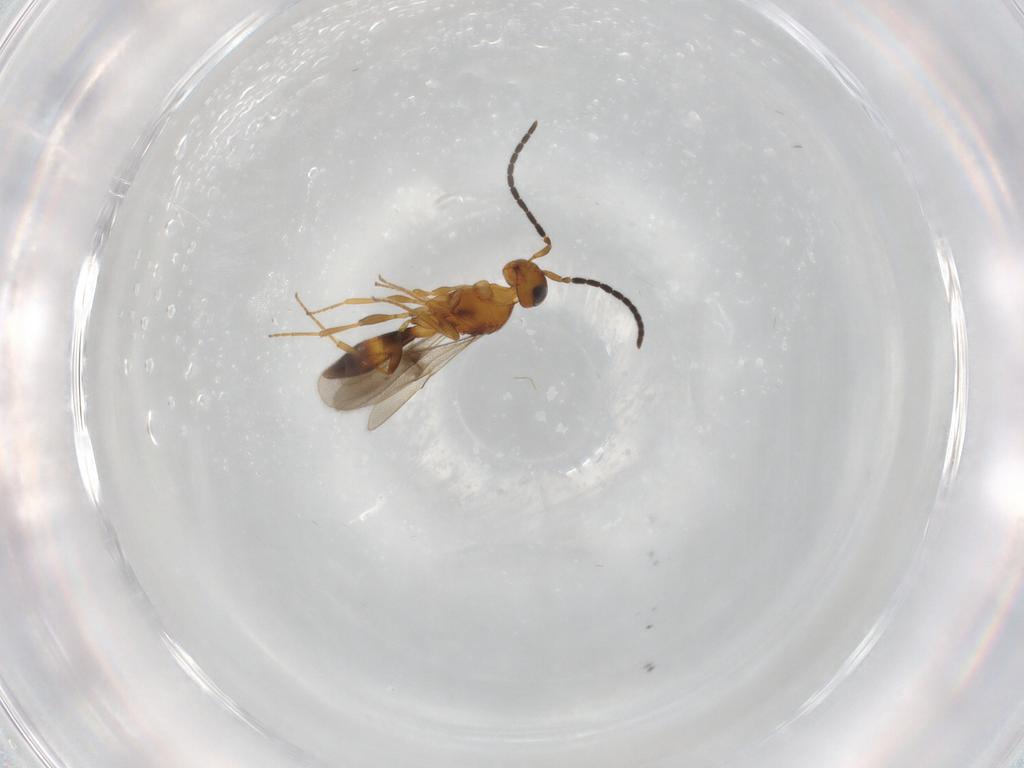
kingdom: Animalia
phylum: Arthropoda
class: Insecta
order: Hymenoptera
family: Scelionidae
